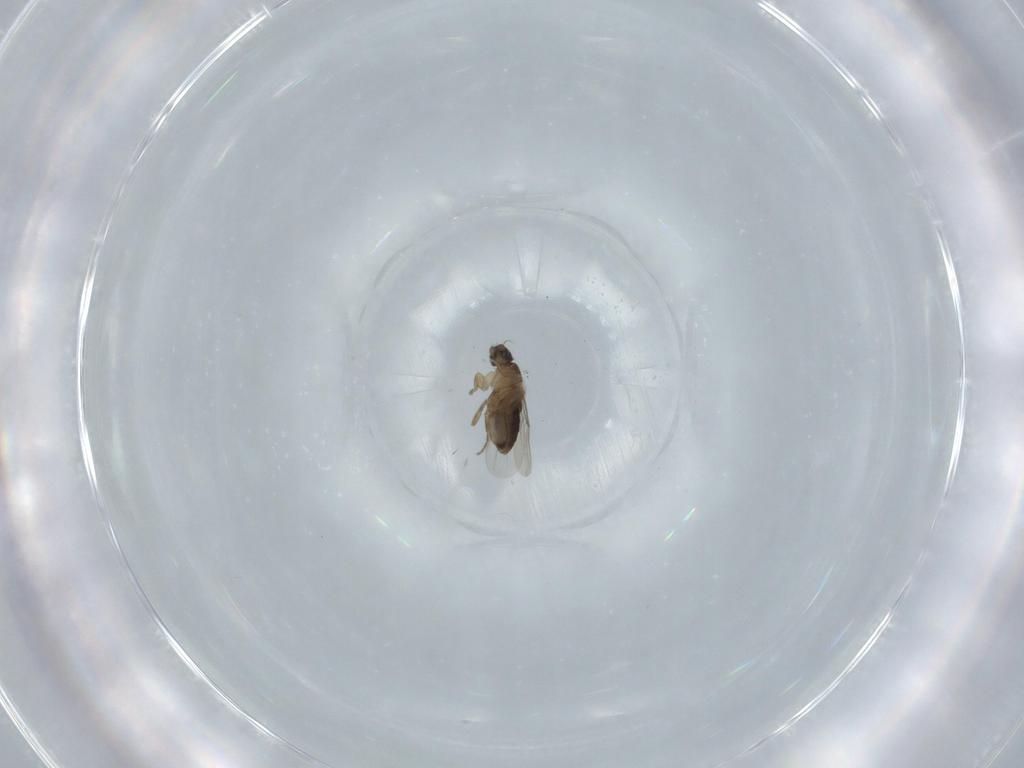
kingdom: Animalia
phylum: Arthropoda
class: Insecta
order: Diptera
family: Phoridae
